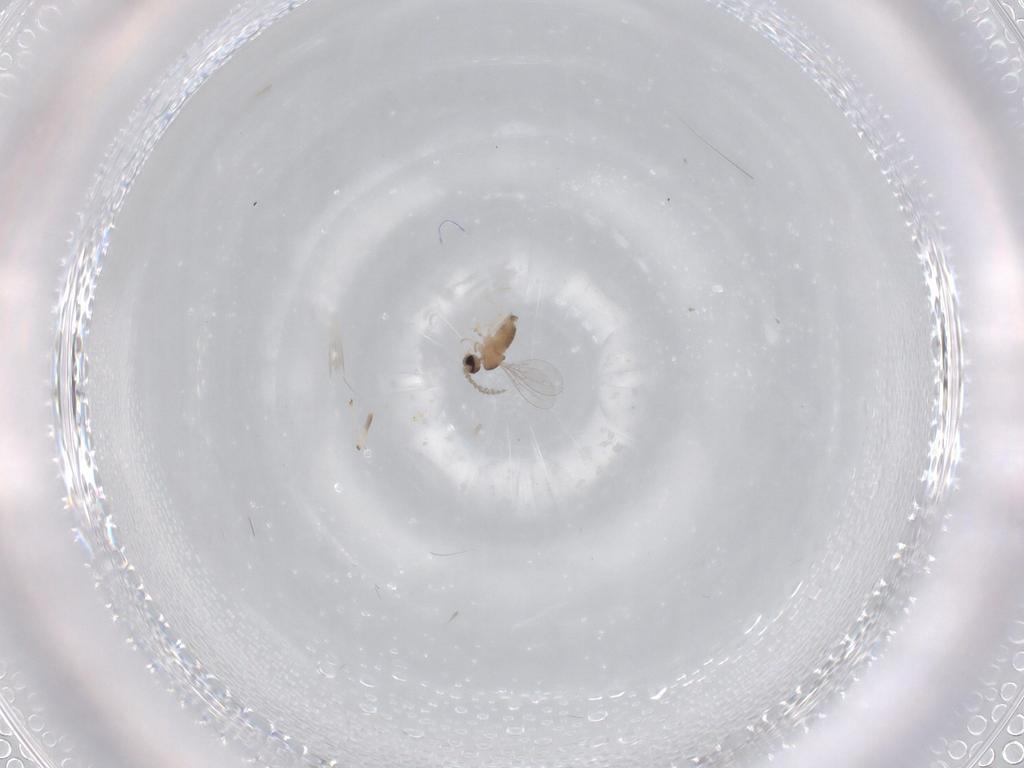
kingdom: Animalia
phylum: Arthropoda
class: Insecta
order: Diptera
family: Chironomidae
